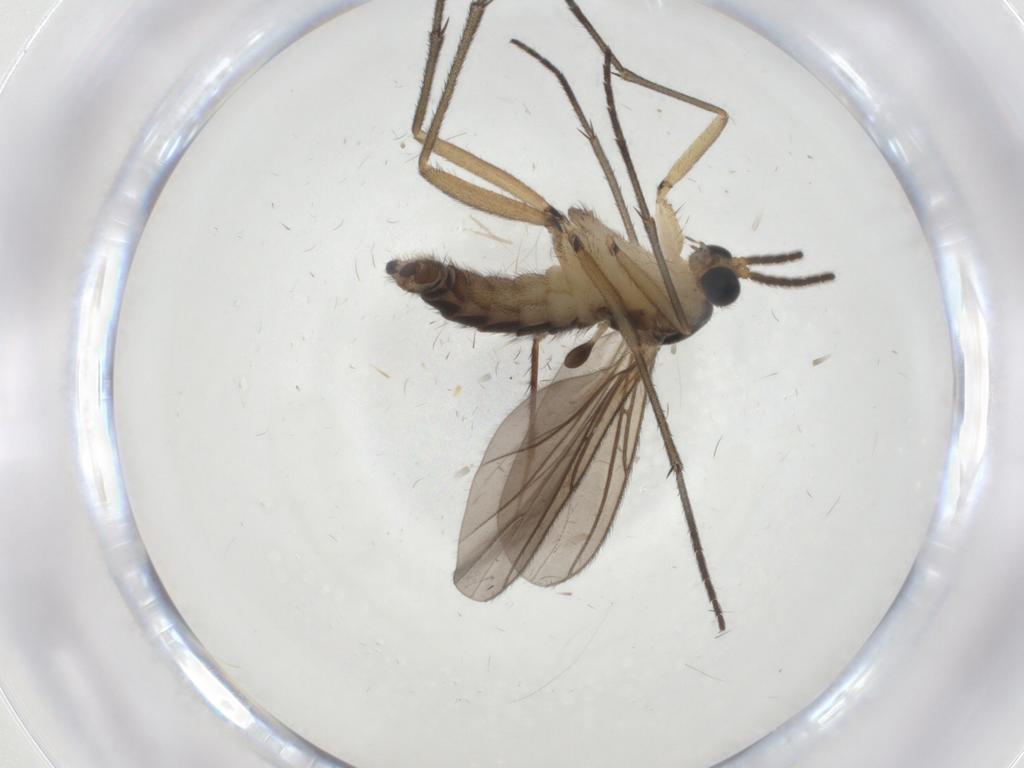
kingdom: Animalia
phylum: Arthropoda
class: Insecta
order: Diptera
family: Sciaridae
